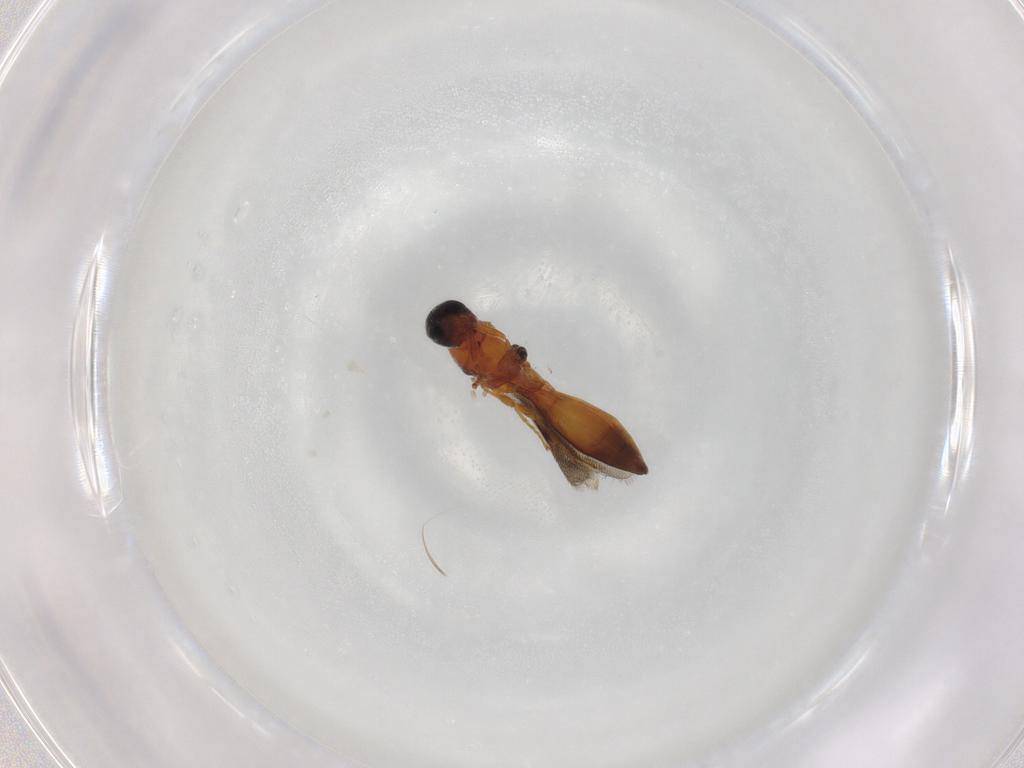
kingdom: Animalia
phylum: Arthropoda
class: Insecta
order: Hymenoptera
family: Scelionidae
